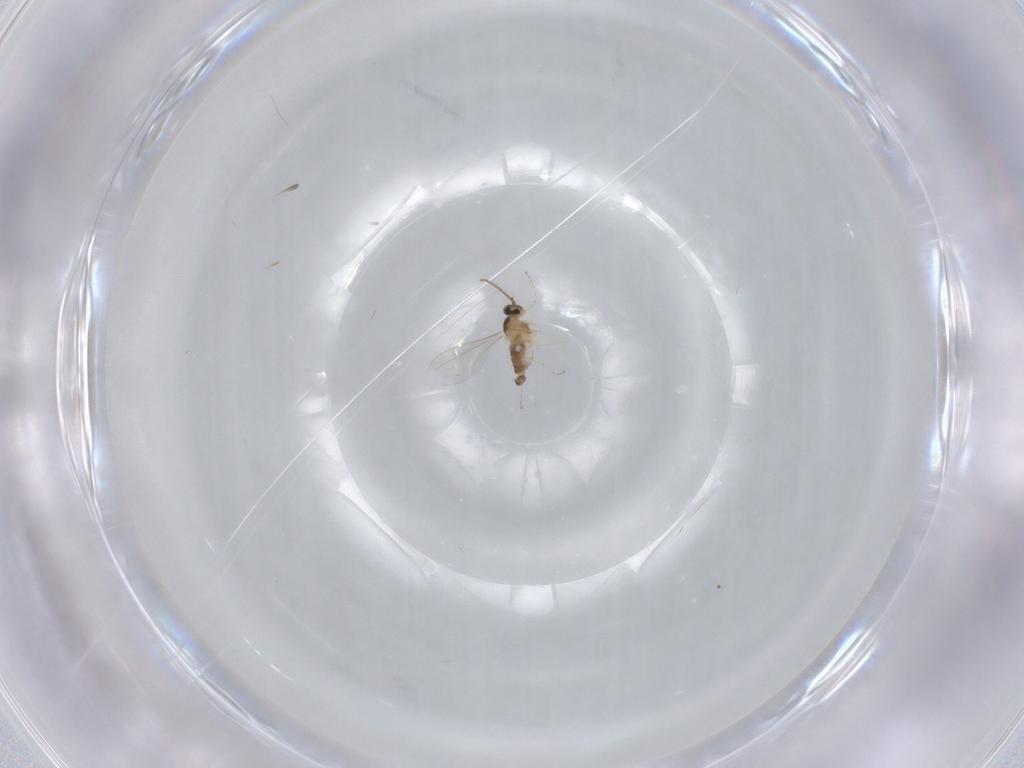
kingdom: Animalia
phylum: Arthropoda
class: Insecta
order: Diptera
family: Cecidomyiidae
